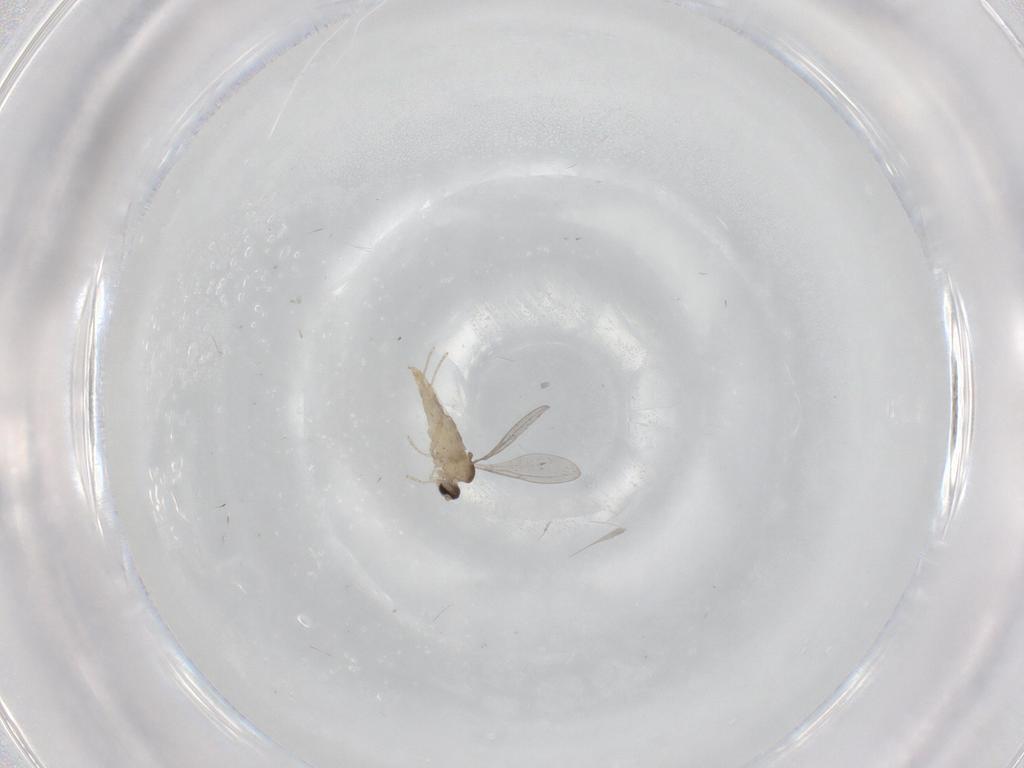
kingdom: Animalia
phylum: Arthropoda
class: Insecta
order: Diptera
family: Cecidomyiidae
